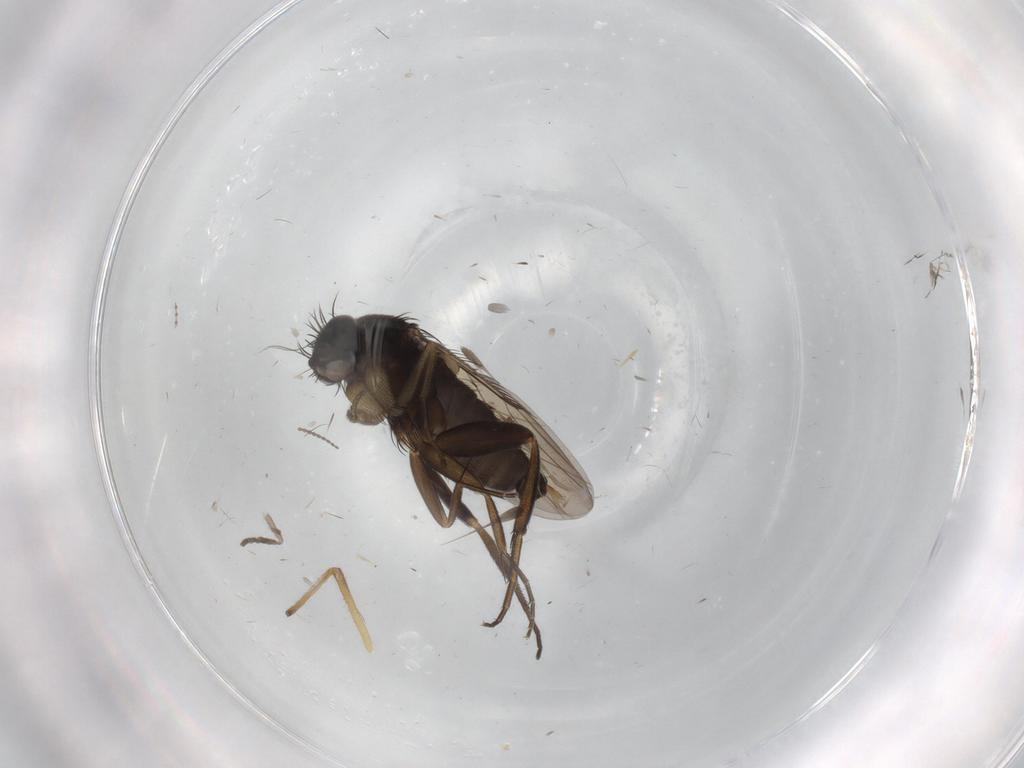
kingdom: Animalia
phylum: Arthropoda
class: Insecta
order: Diptera
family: Phoridae
